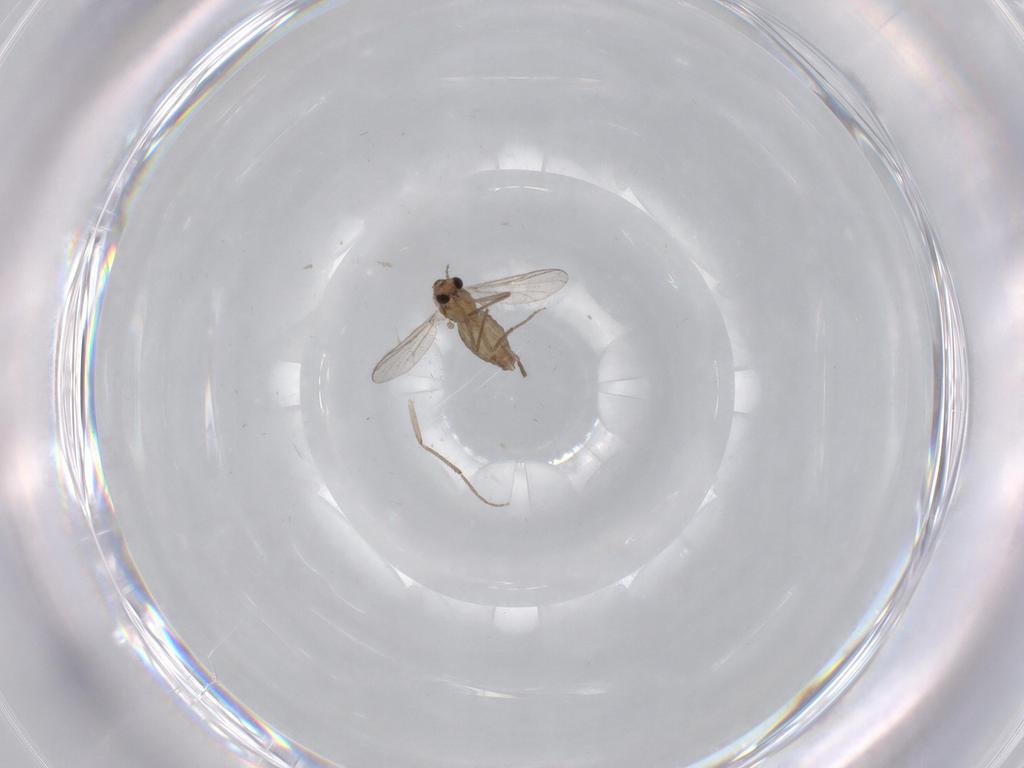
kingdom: Animalia
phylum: Arthropoda
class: Insecta
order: Diptera
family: Chironomidae
